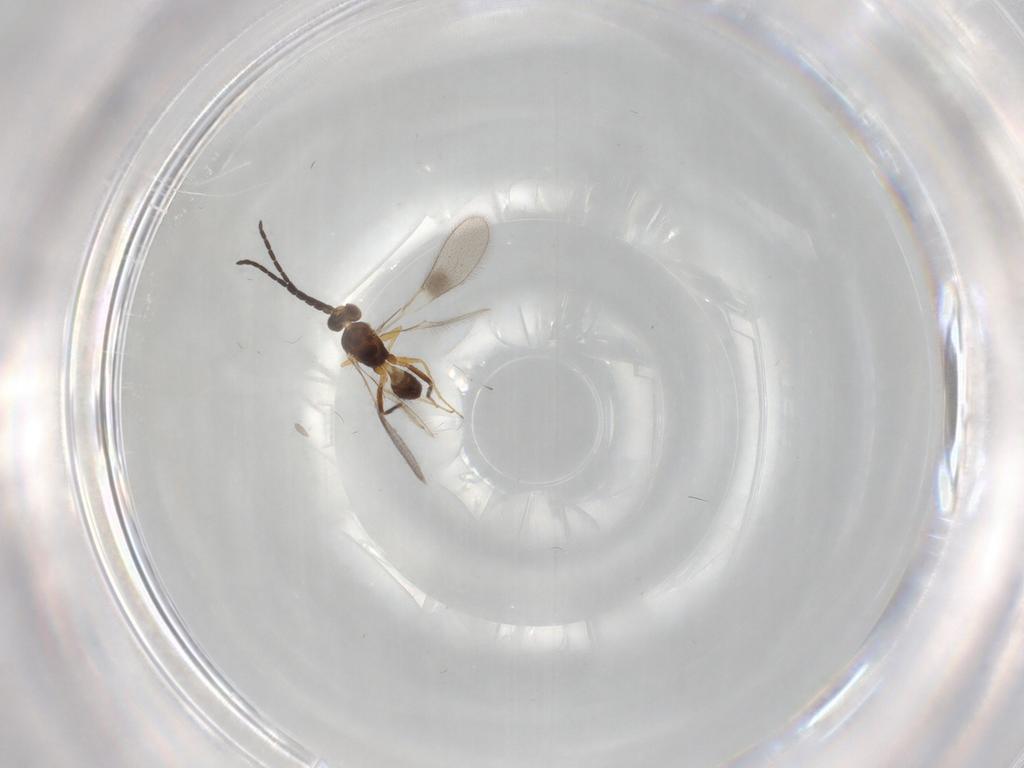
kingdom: Animalia
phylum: Arthropoda
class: Insecta
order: Hymenoptera
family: Mymaridae
